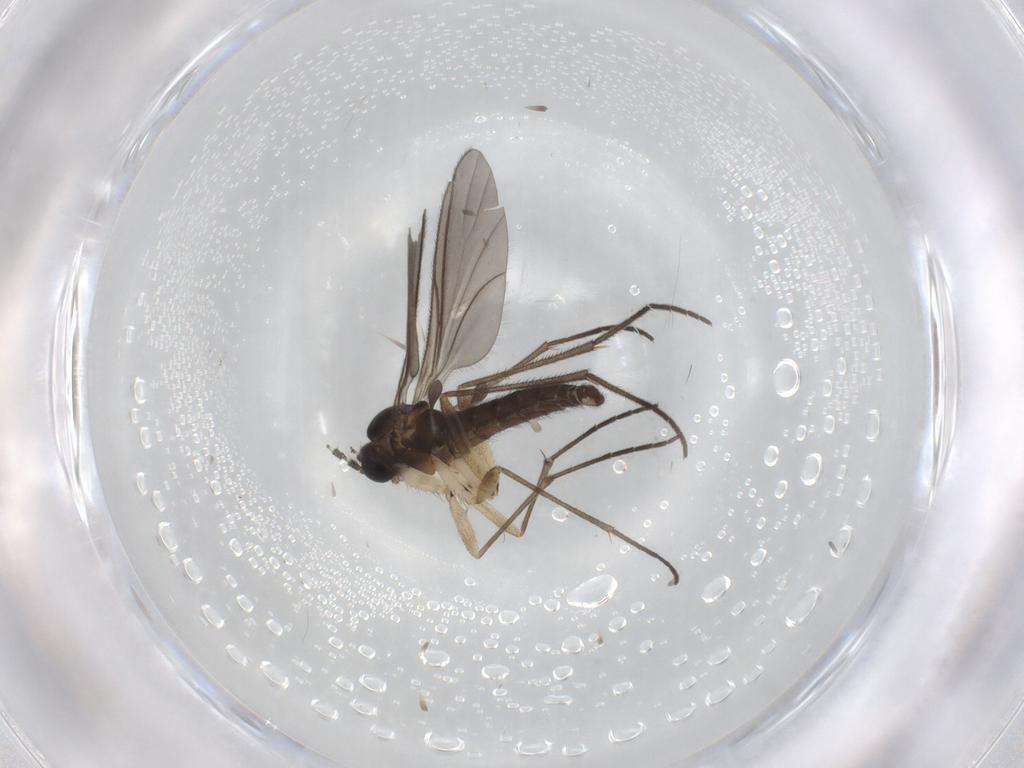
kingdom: Animalia
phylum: Arthropoda
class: Insecta
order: Diptera
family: Sciaridae
